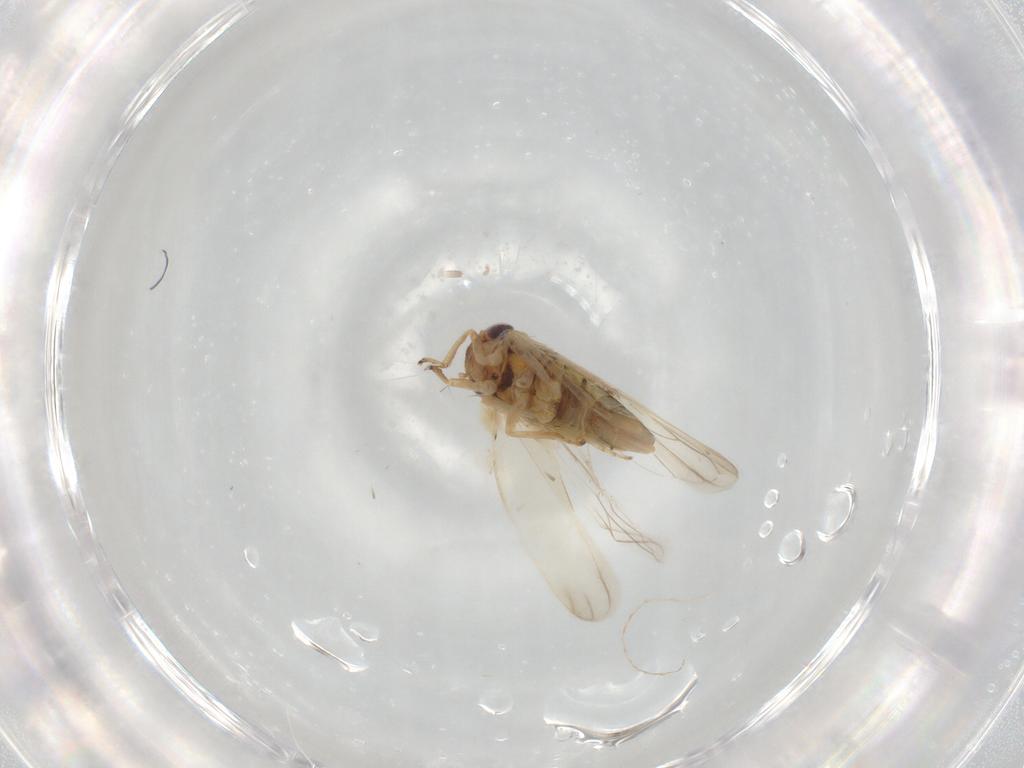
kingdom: Animalia
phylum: Arthropoda
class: Insecta
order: Hemiptera
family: Cicadellidae
